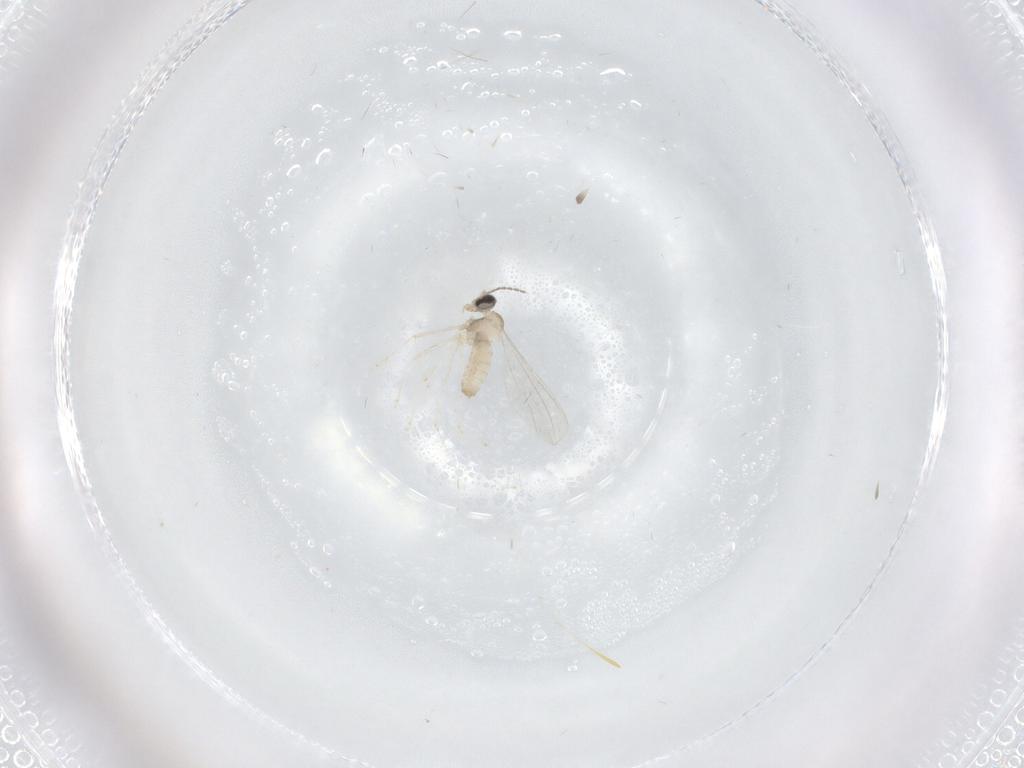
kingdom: Animalia
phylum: Arthropoda
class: Insecta
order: Diptera
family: Cecidomyiidae
